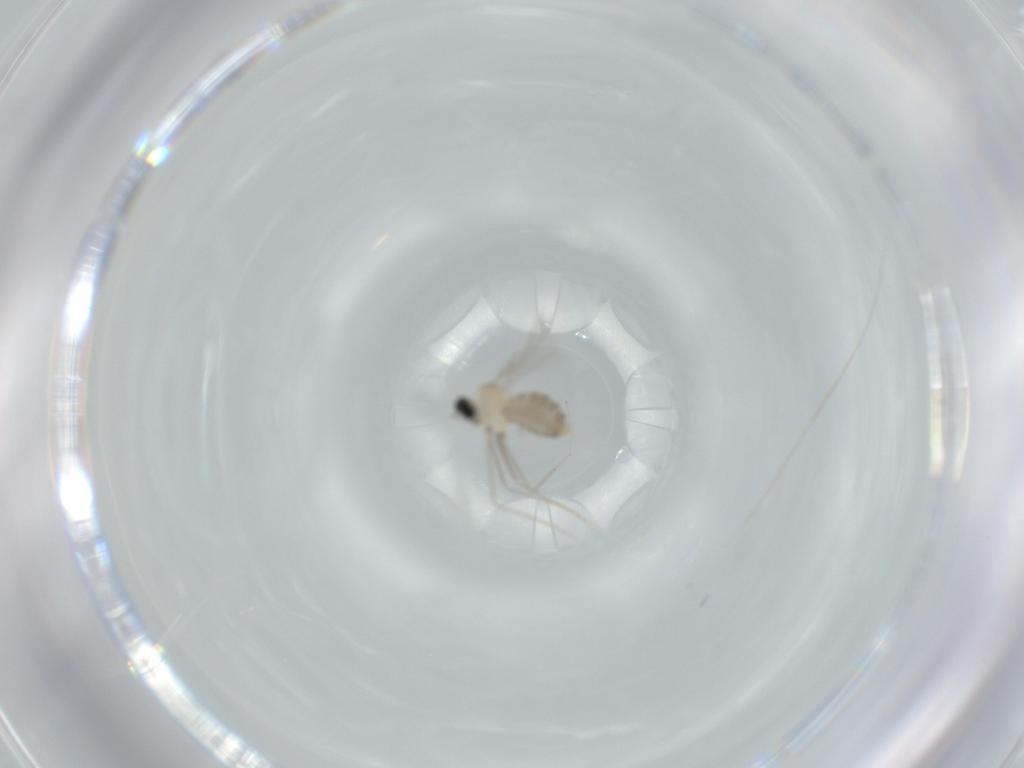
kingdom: Animalia
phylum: Arthropoda
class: Insecta
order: Diptera
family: Cecidomyiidae
